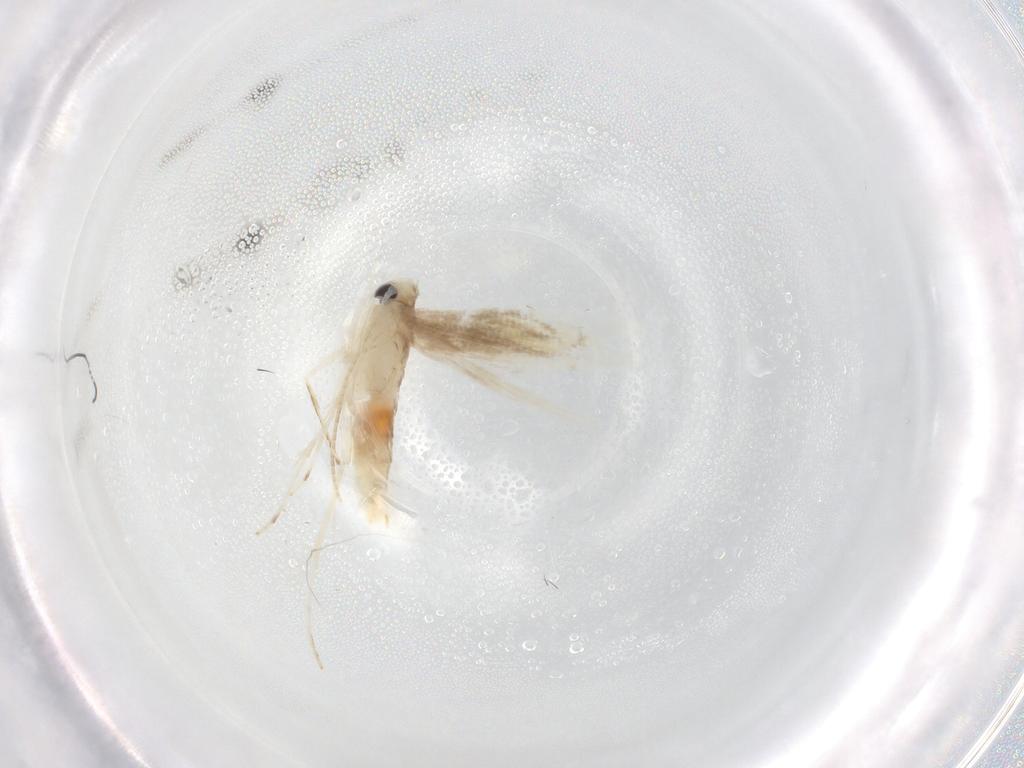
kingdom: Animalia
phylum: Arthropoda
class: Insecta
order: Lepidoptera
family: Gracillariidae
